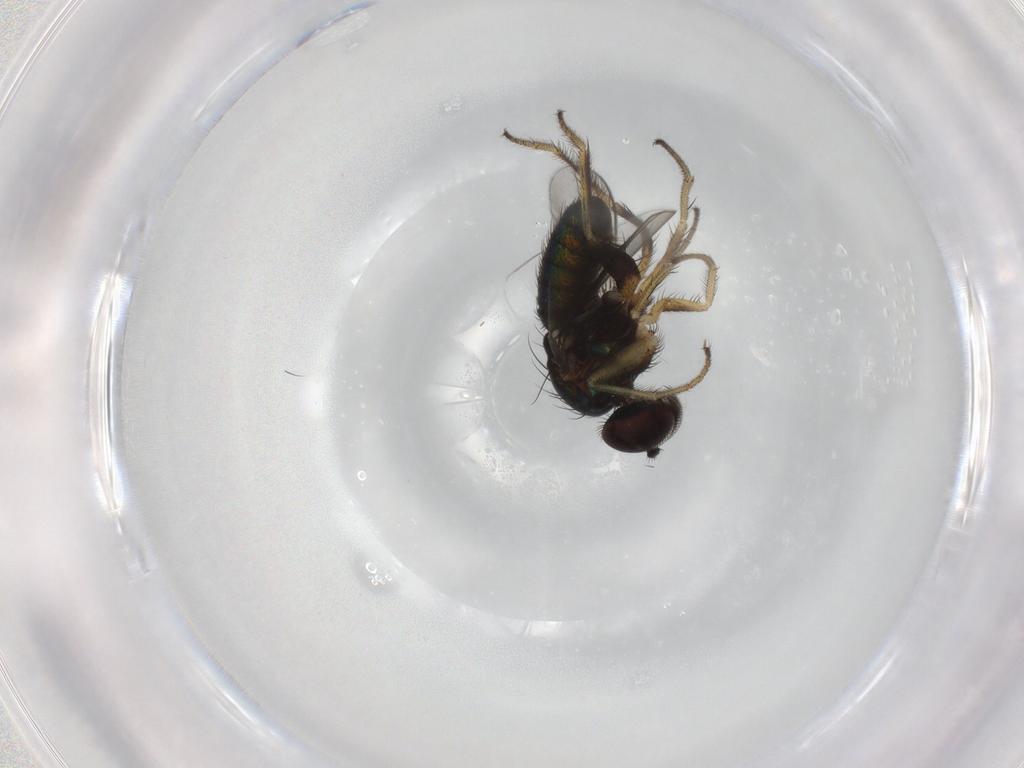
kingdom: Animalia
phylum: Arthropoda
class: Insecta
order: Diptera
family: Dolichopodidae
